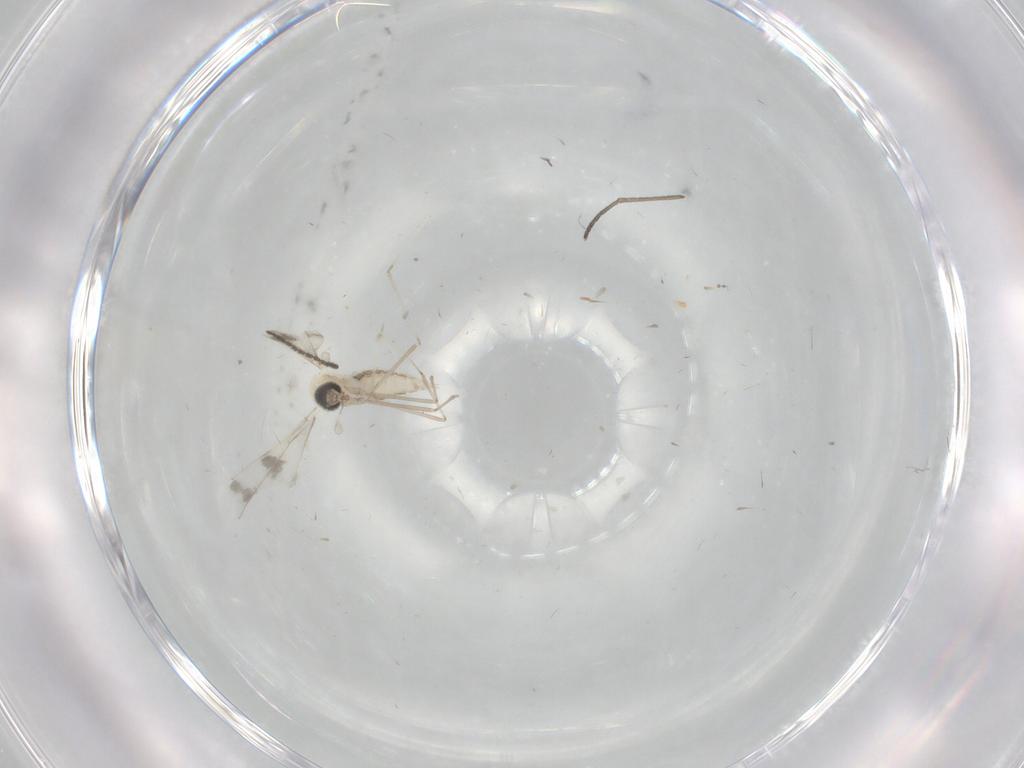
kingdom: Animalia
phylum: Arthropoda
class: Insecta
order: Diptera
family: Cecidomyiidae
